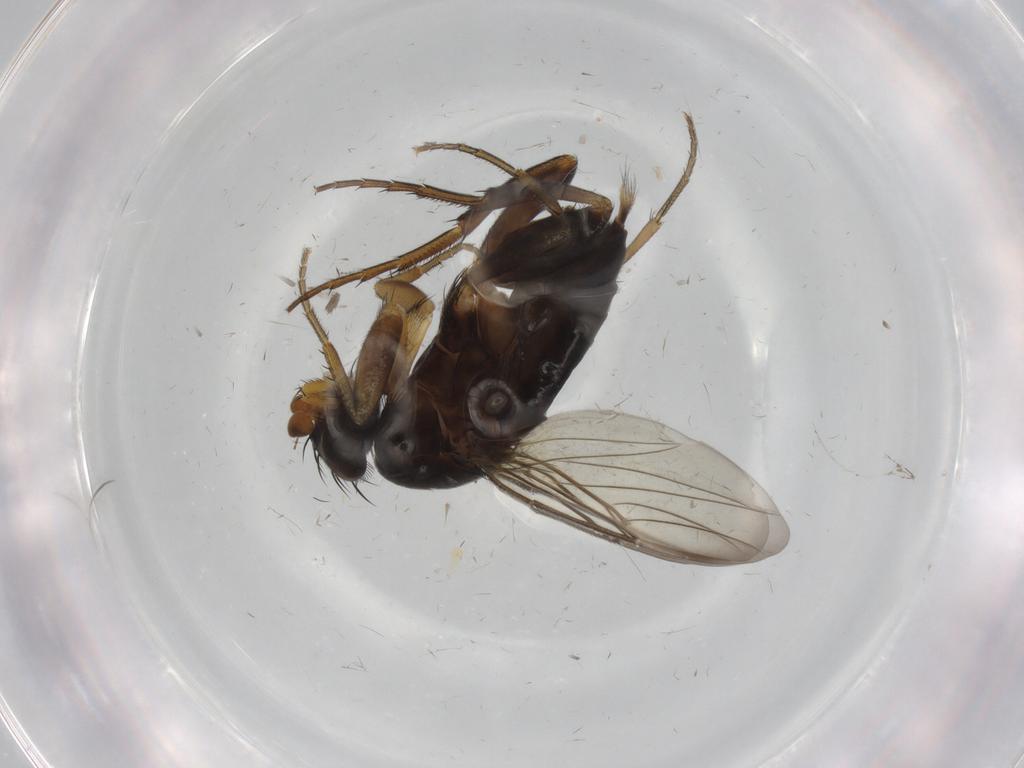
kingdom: Animalia
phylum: Arthropoda
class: Insecta
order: Diptera
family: Phoridae
